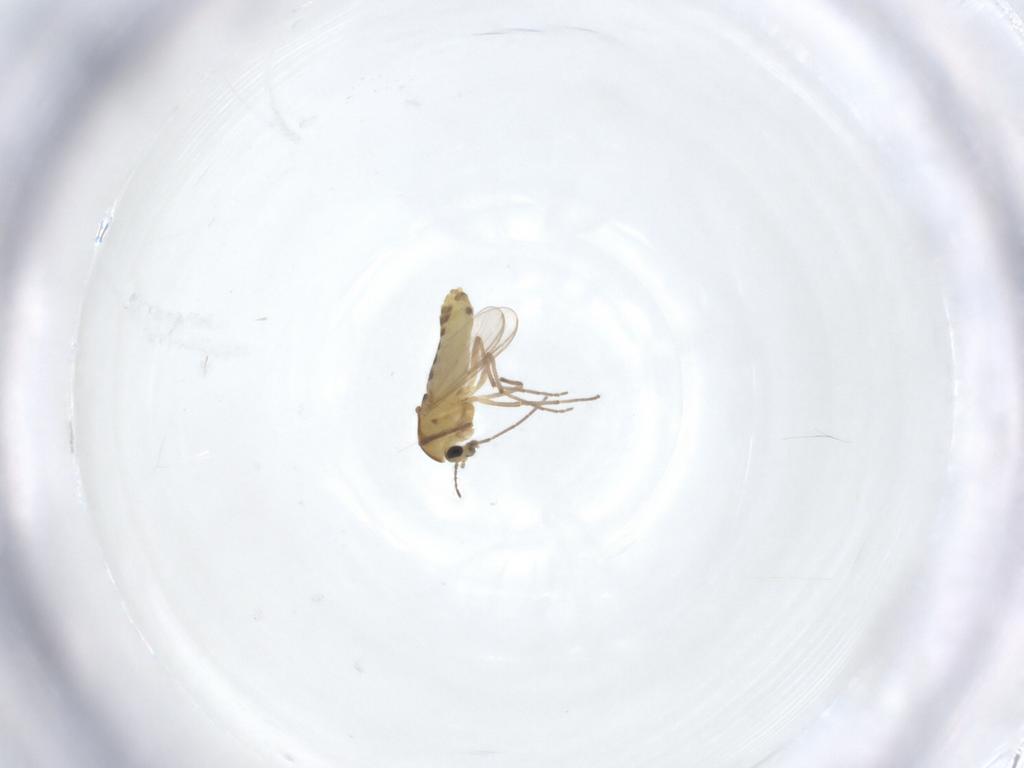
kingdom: Animalia
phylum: Arthropoda
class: Insecta
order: Diptera
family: Chironomidae
